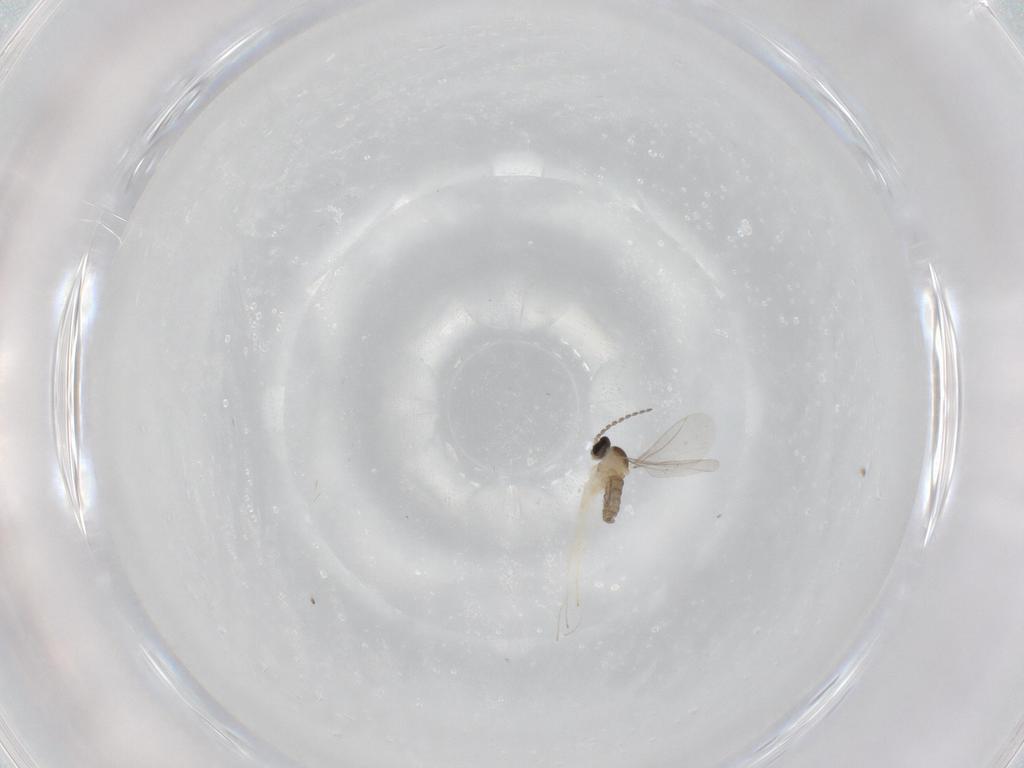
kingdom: Animalia
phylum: Arthropoda
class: Insecta
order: Diptera
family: Cecidomyiidae
